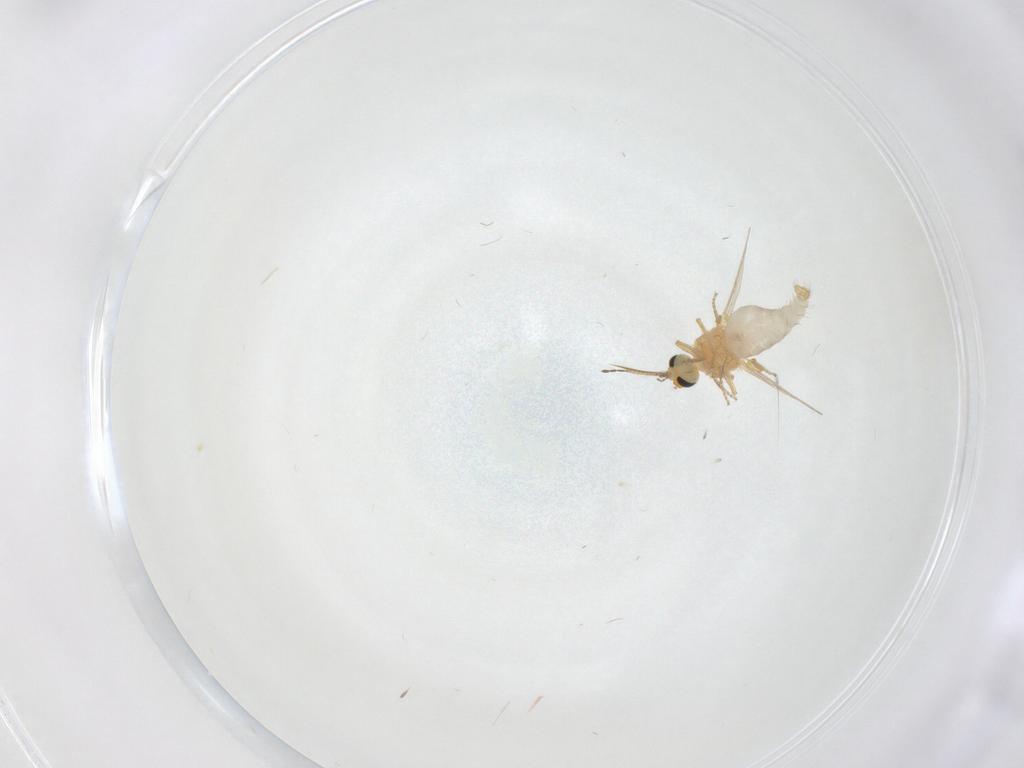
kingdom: Animalia
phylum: Arthropoda
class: Insecta
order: Diptera
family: Ceratopogonidae
